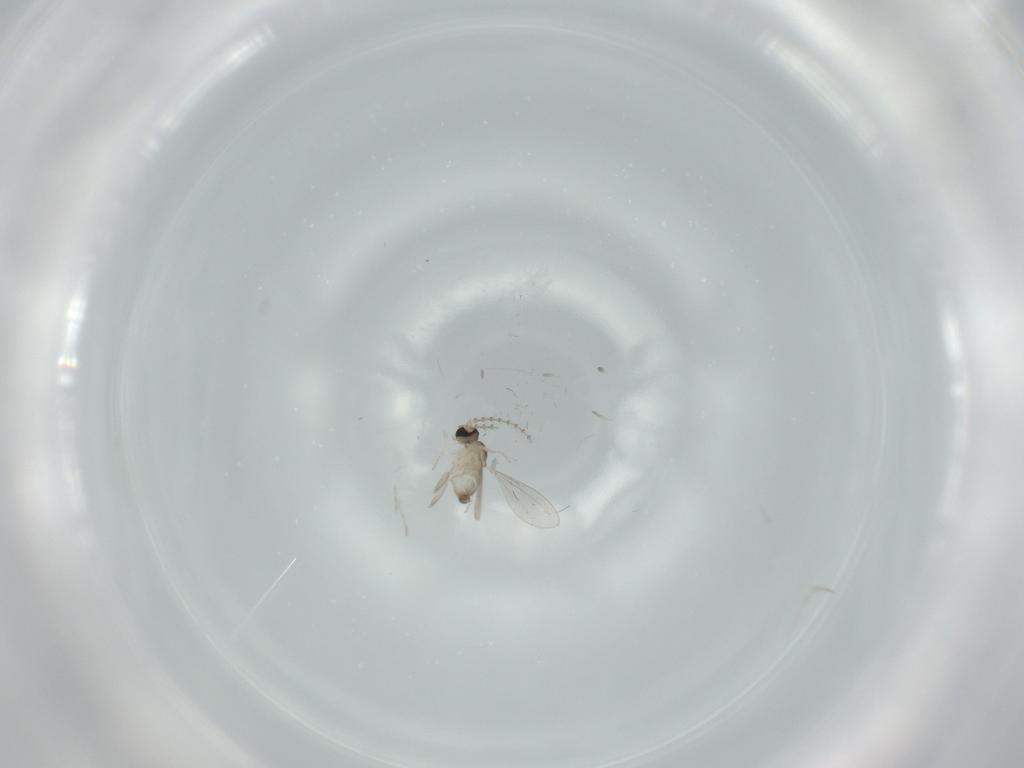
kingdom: Animalia
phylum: Arthropoda
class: Insecta
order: Diptera
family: Cecidomyiidae
